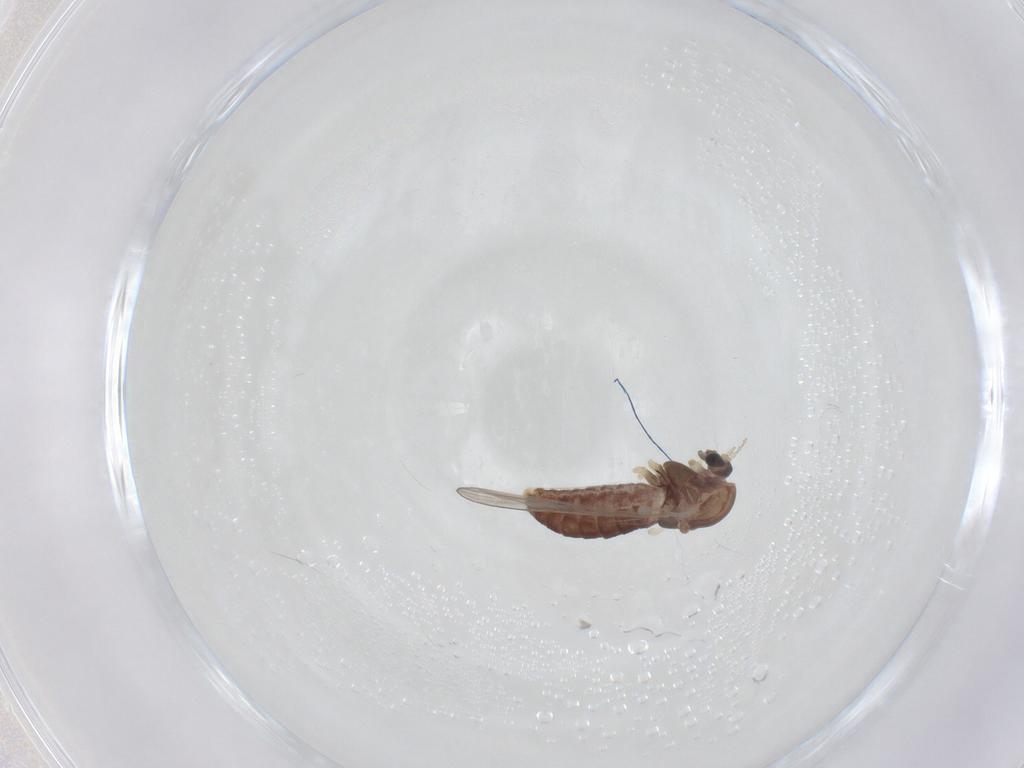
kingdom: Animalia
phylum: Arthropoda
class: Insecta
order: Diptera
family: Chironomidae
